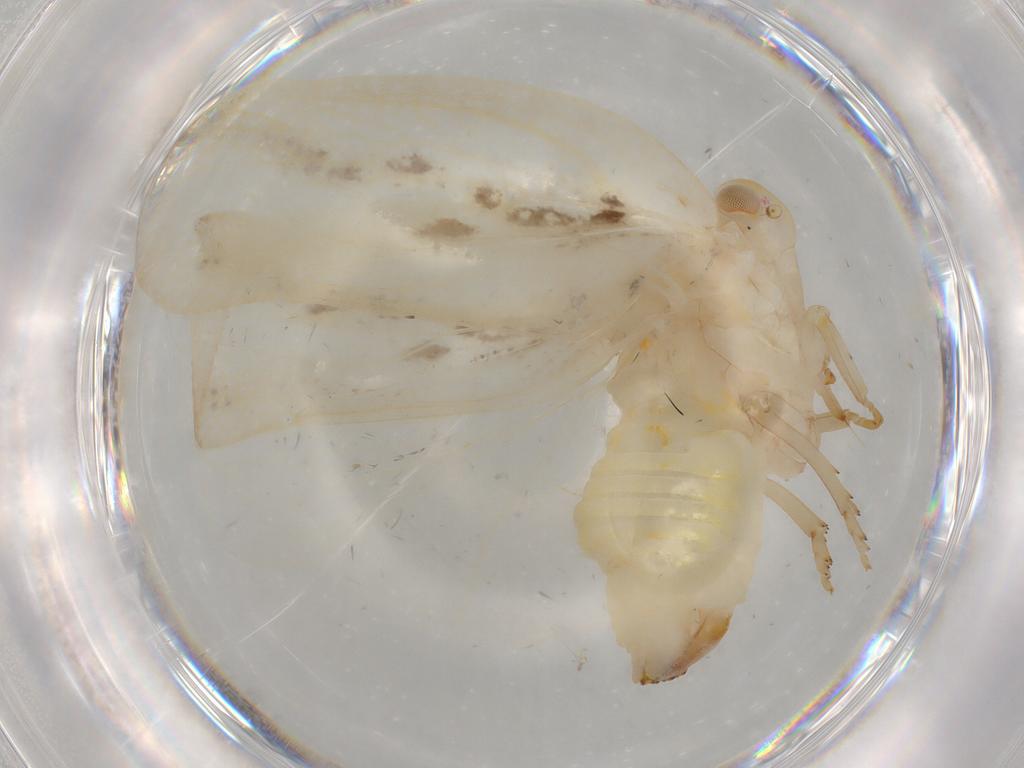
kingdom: Animalia
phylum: Arthropoda
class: Insecta
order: Hemiptera
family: Flatidae
